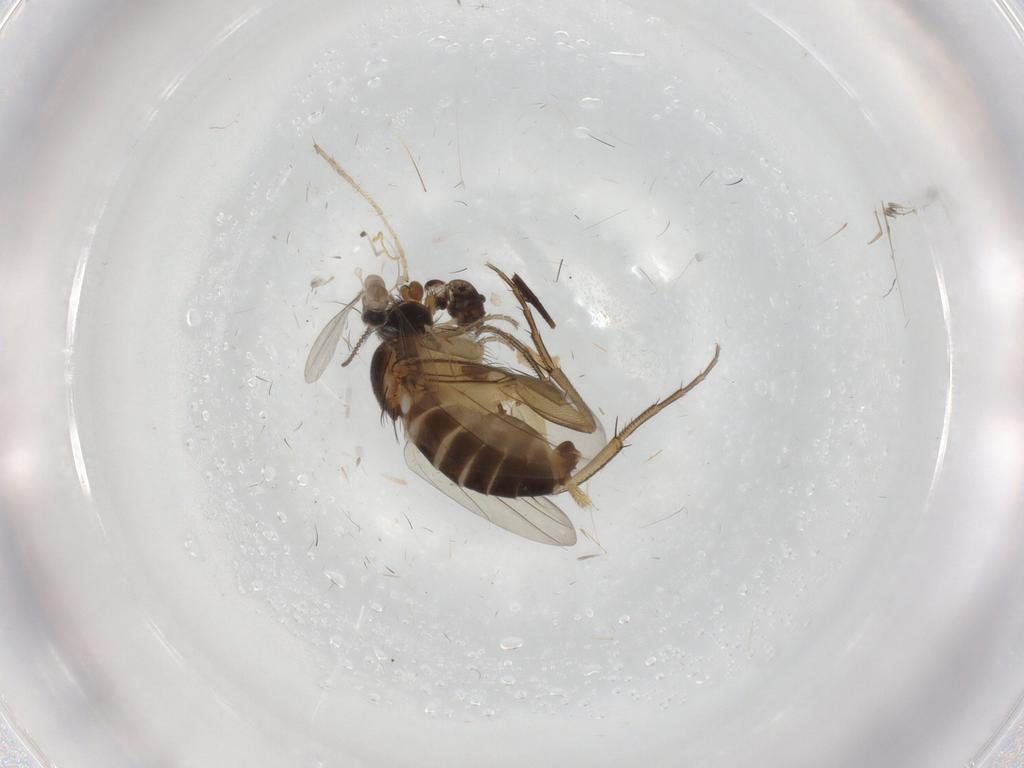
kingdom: Animalia
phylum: Arthropoda
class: Insecta
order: Diptera
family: Phoridae
